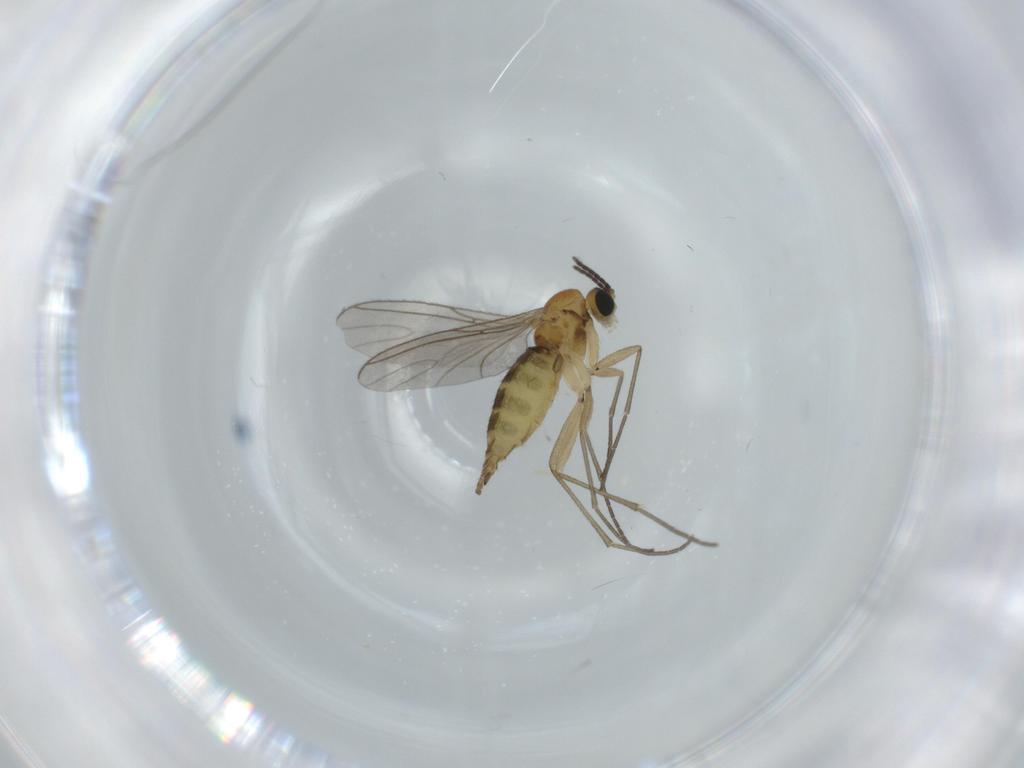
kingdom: Animalia
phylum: Arthropoda
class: Insecta
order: Diptera
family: Sciaridae
